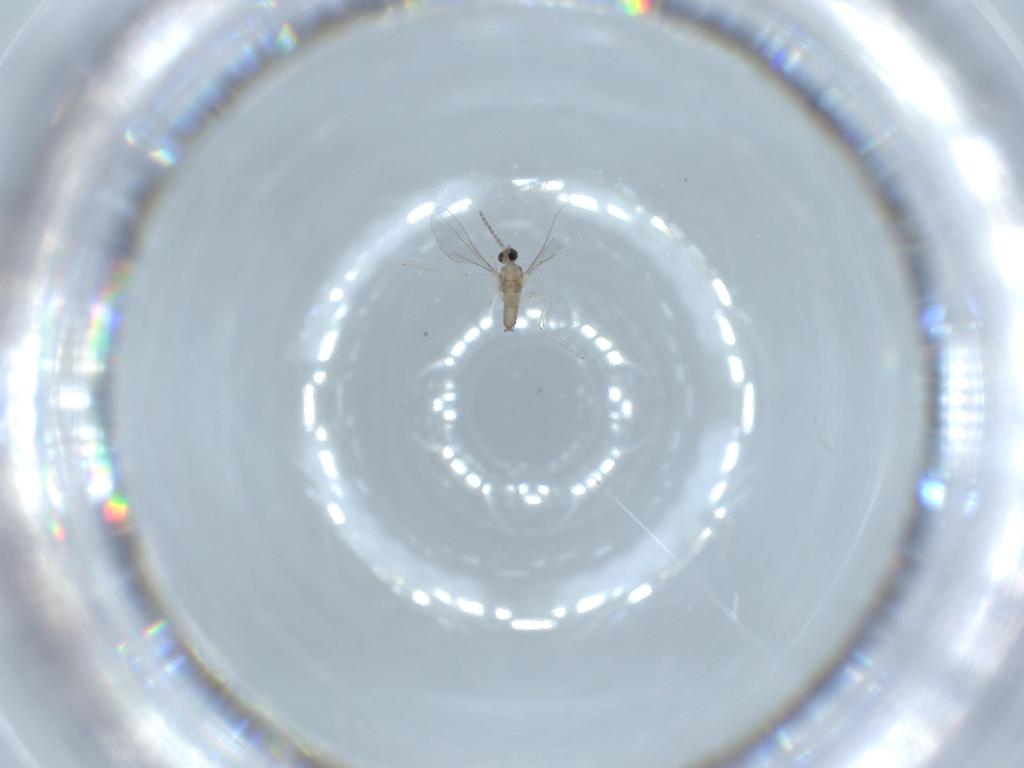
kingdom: Animalia
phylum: Arthropoda
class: Insecta
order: Diptera
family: Cecidomyiidae
